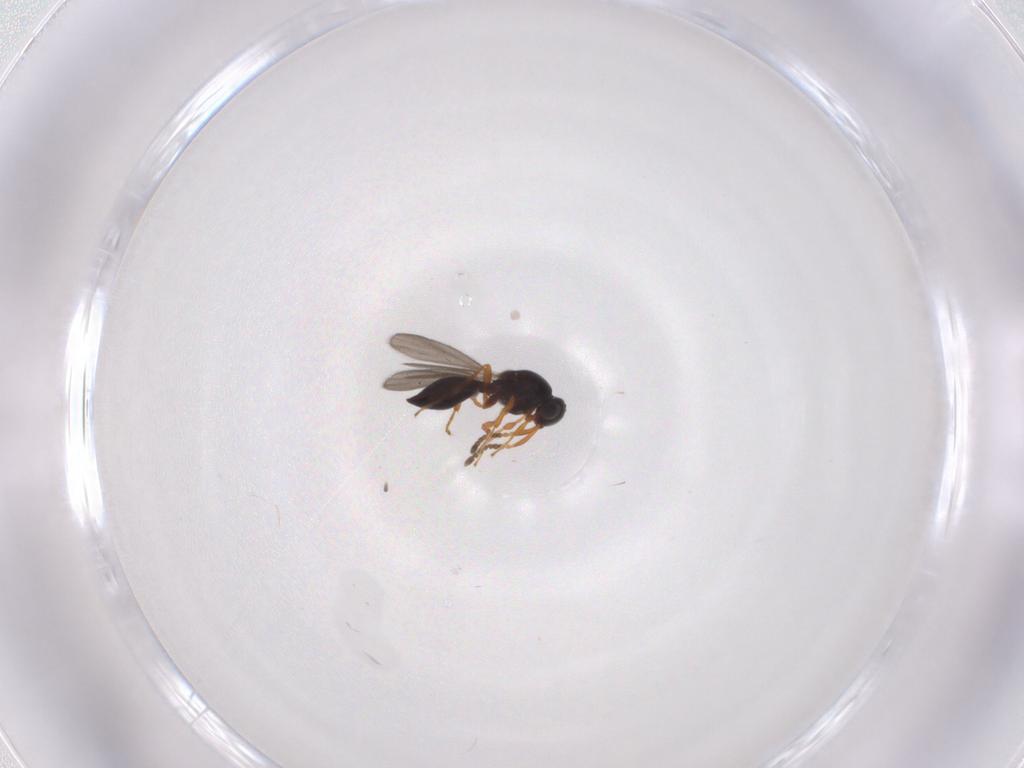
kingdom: Animalia
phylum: Arthropoda
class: Insecta
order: Hymenoptera
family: Platygastridae
